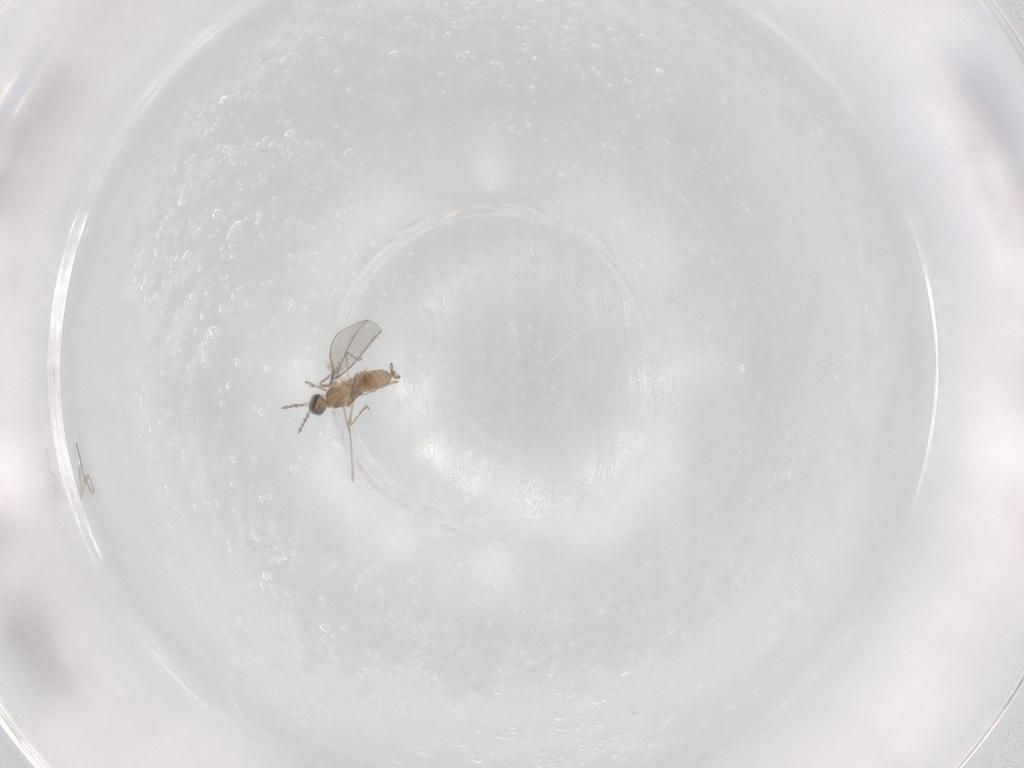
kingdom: Animalia
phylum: Arthropoda
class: Insecta
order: Diptera
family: Cecidomyiidae
